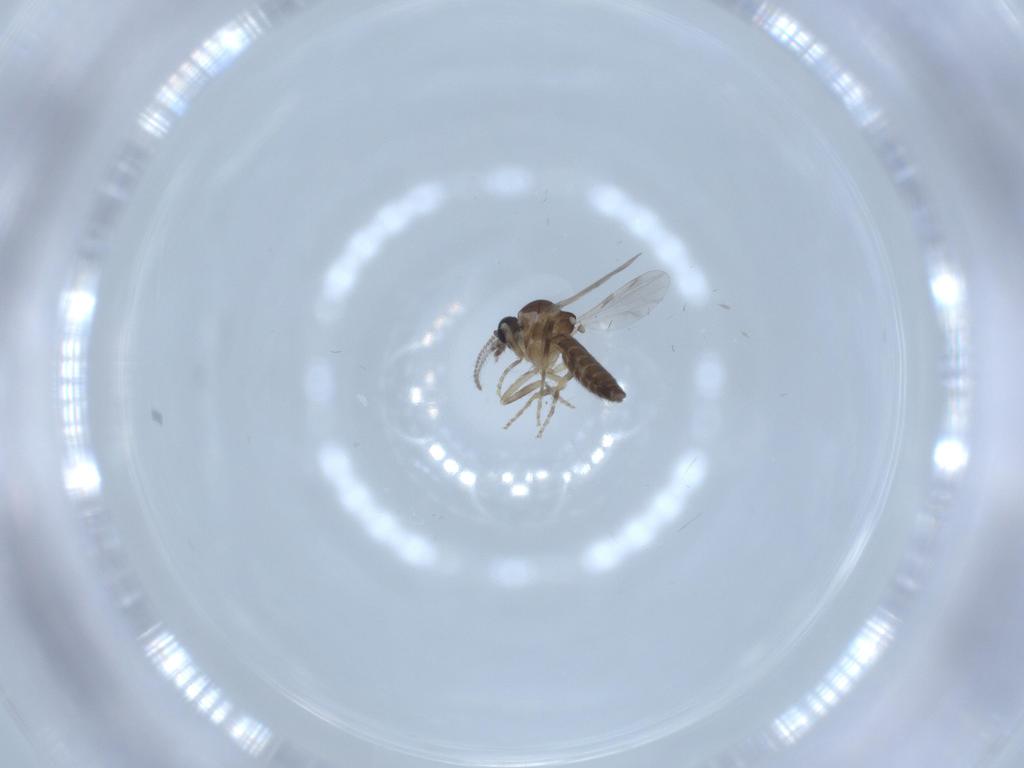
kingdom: Animalia
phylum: Arthropoda
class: Insecta
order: Diptera
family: Ceratopogonidae
